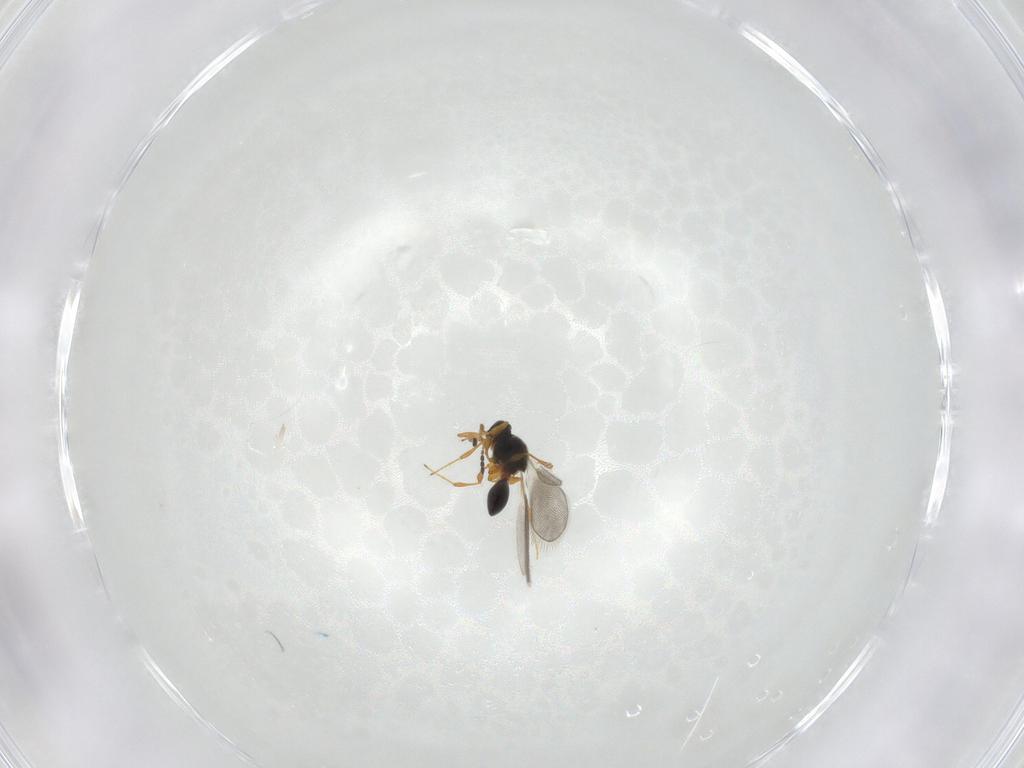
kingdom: Animalia
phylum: Arthropoda
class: Insecta
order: Hymenoptera
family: Platygastridae
